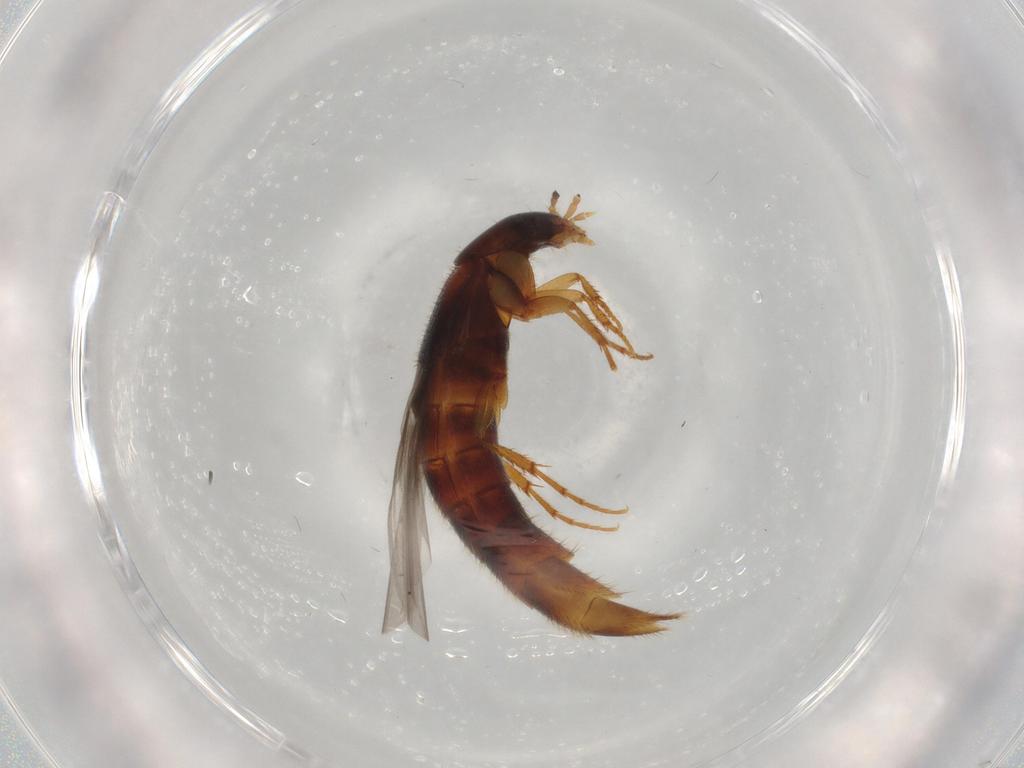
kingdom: Animalia
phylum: Arthropoda
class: Insecta
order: Coleoptera
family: Staphylinidae
